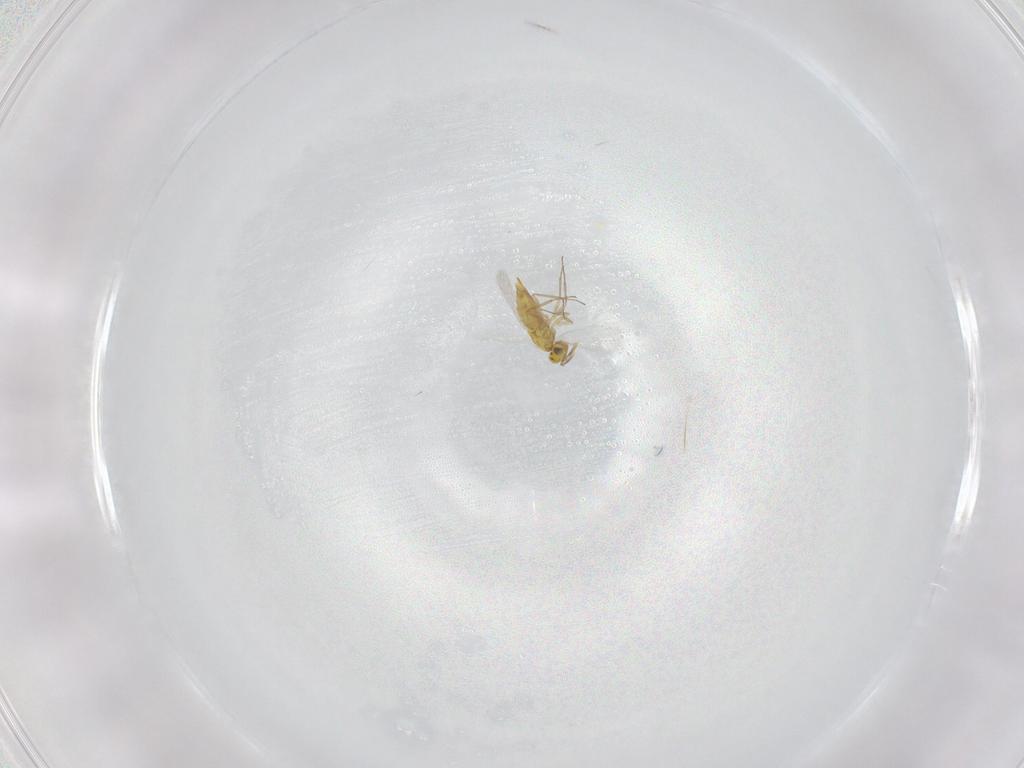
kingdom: Animalia
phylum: Arthropoda
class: Insecta
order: Hymenoptera
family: Aphelinidae
